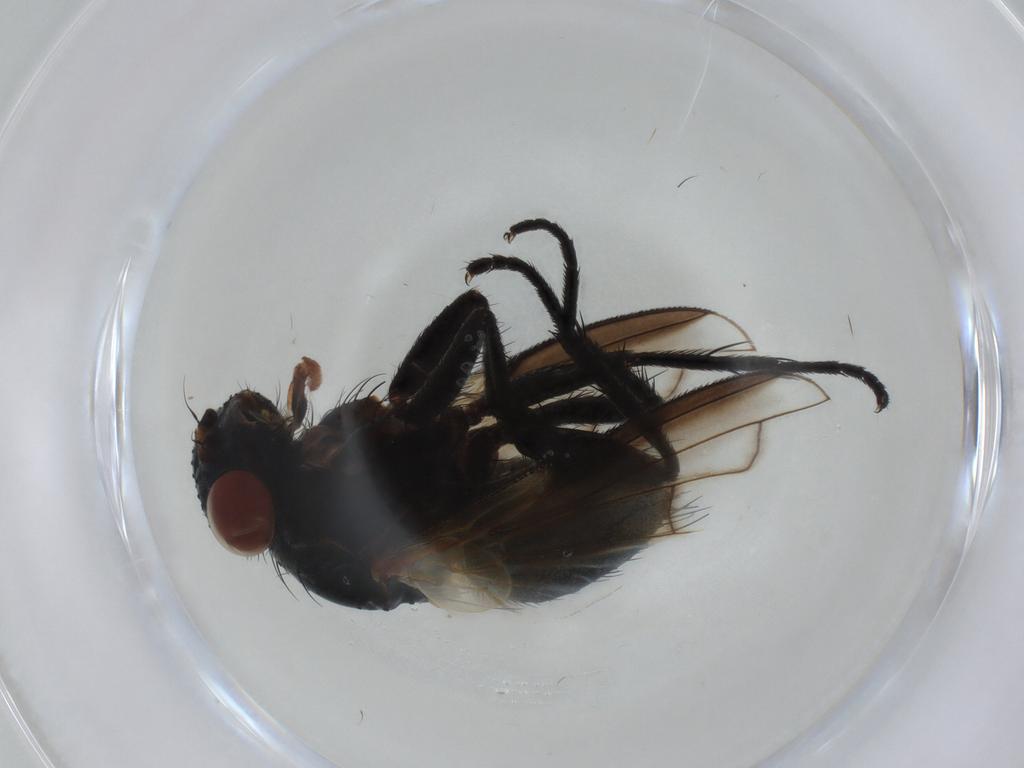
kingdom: Animalia
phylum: Arthropoda
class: Insecta
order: Diptera
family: Tachinidae
